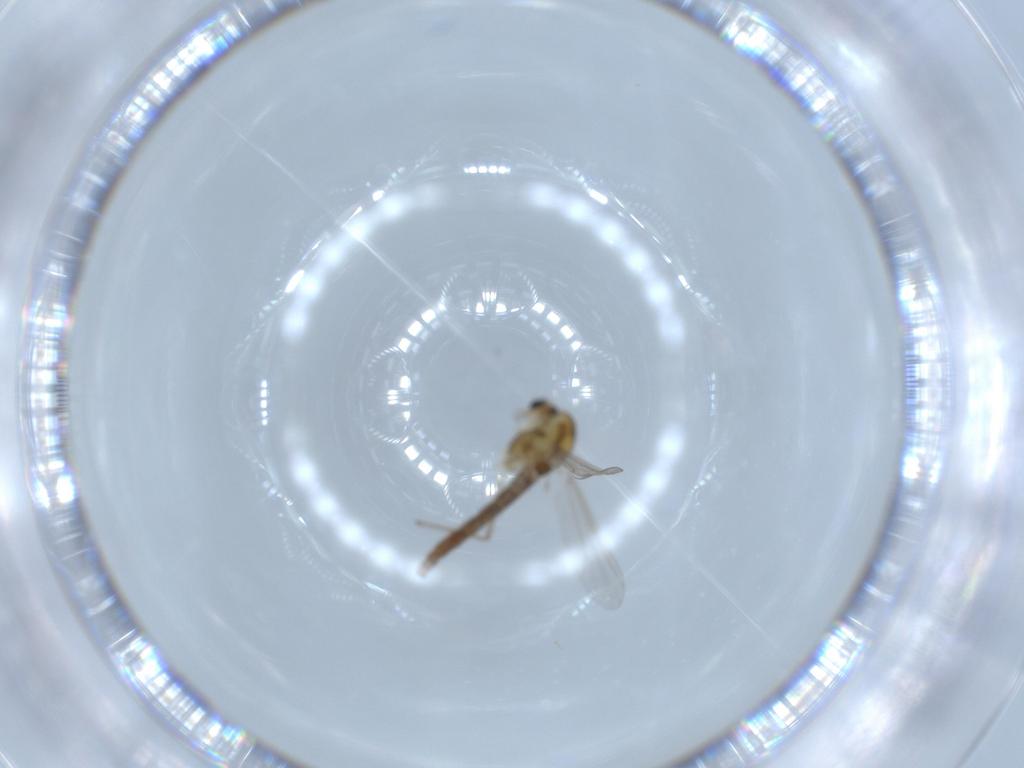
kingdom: Animalia
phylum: Arthropoda
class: Insecta
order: Diptera
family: Chironomidae
